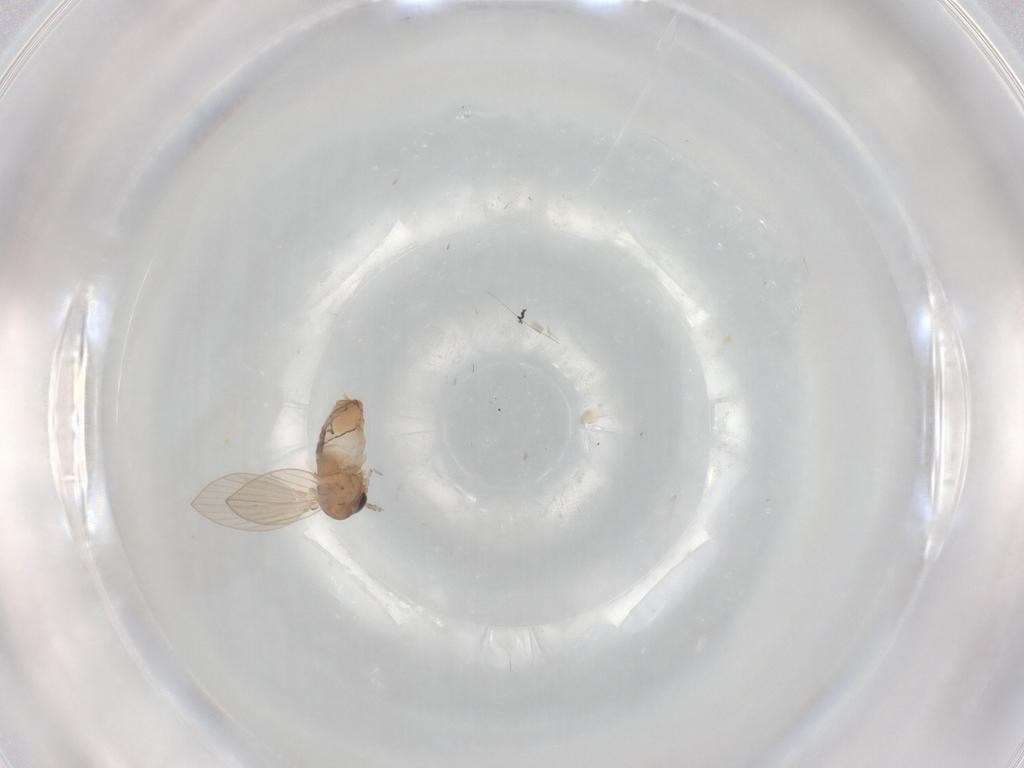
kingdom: Animalia
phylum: Arthropoda
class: Insecta
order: Diptera
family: Psychodidae
